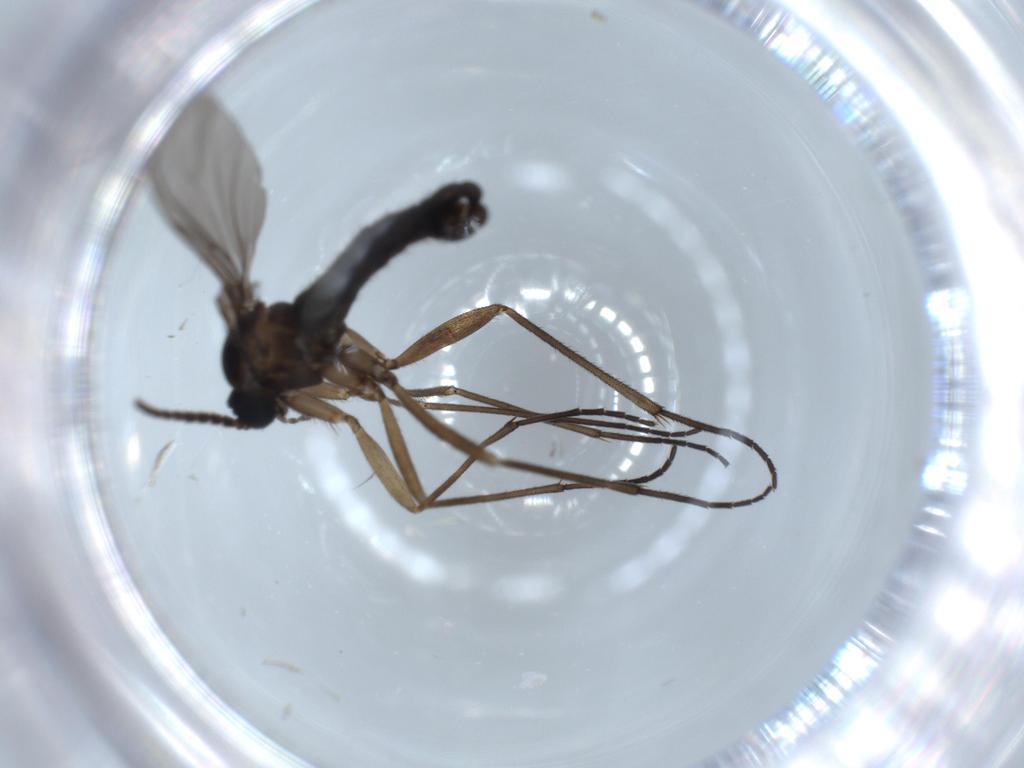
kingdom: Animalia
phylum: Arthropoda
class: Insecta
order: Diptera
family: Sciaridae
